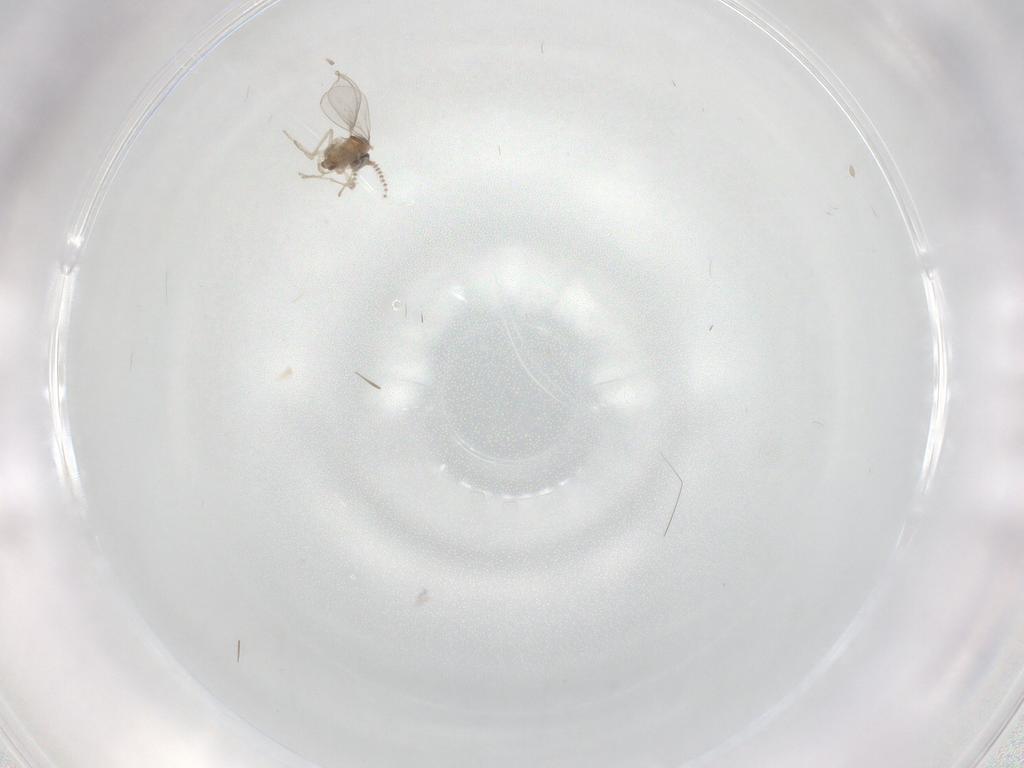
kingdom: Animalia
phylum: Arthropoda
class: Insecta
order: Diptera
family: Cecidomyiidae
